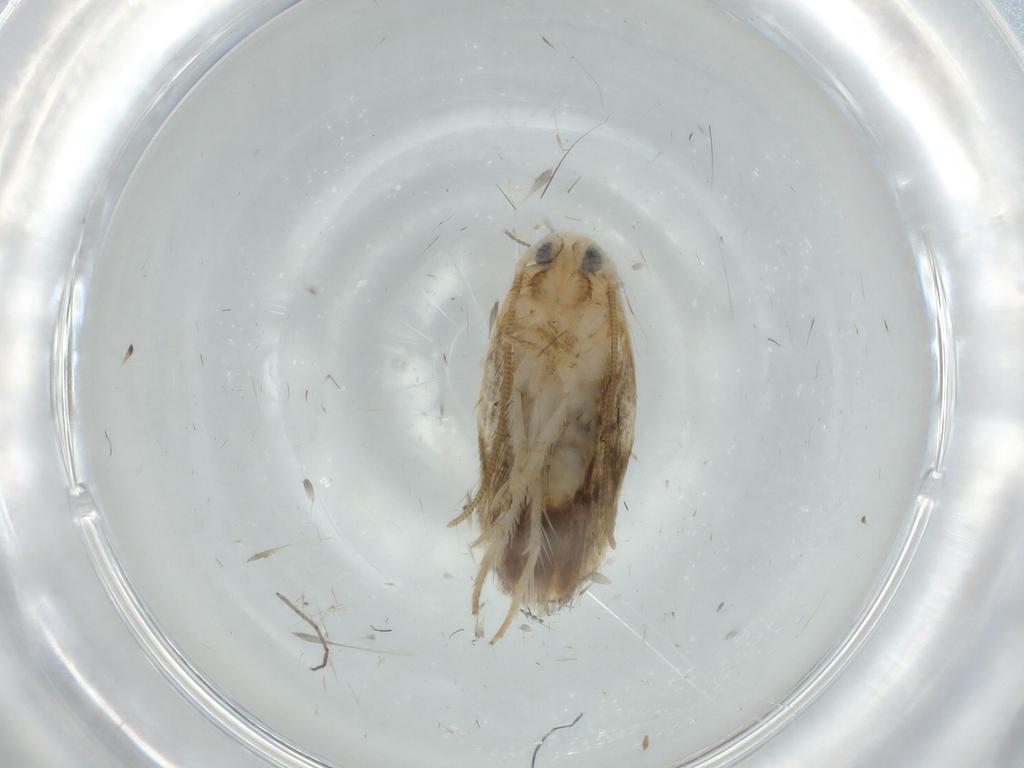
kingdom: Animalia
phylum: Arthropoda
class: Insecta
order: Lepidoptera
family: Opostegidae
